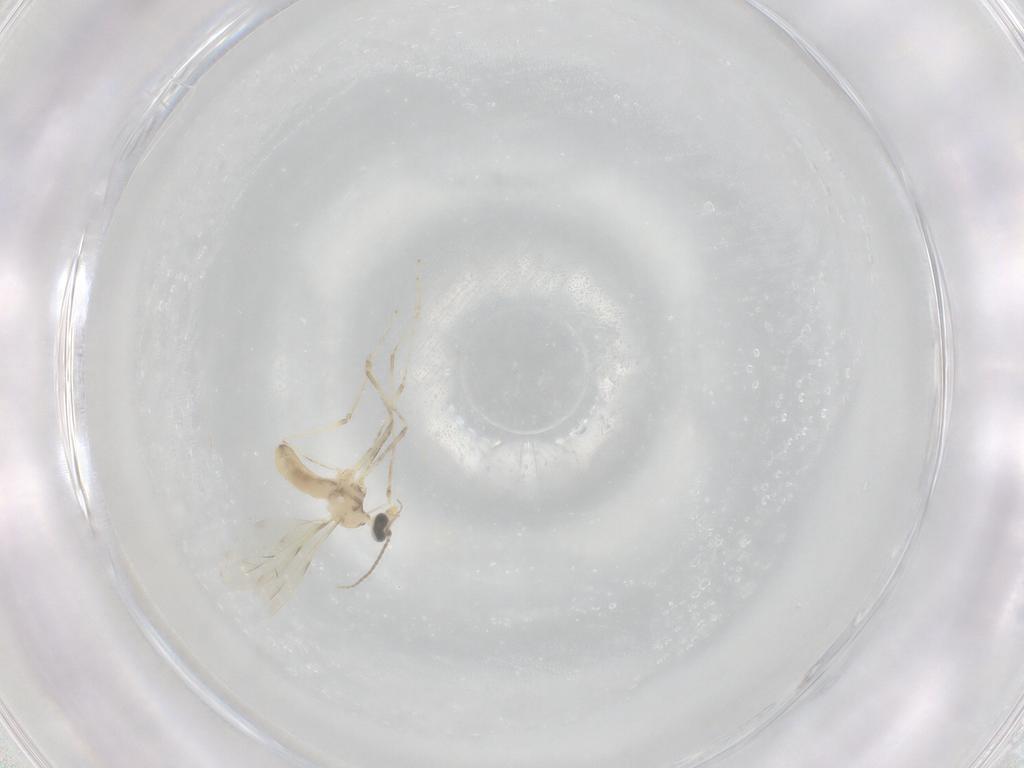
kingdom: Animalia
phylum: Arthropoda
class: Insecta
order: Diptera
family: Cecidomyiidae
